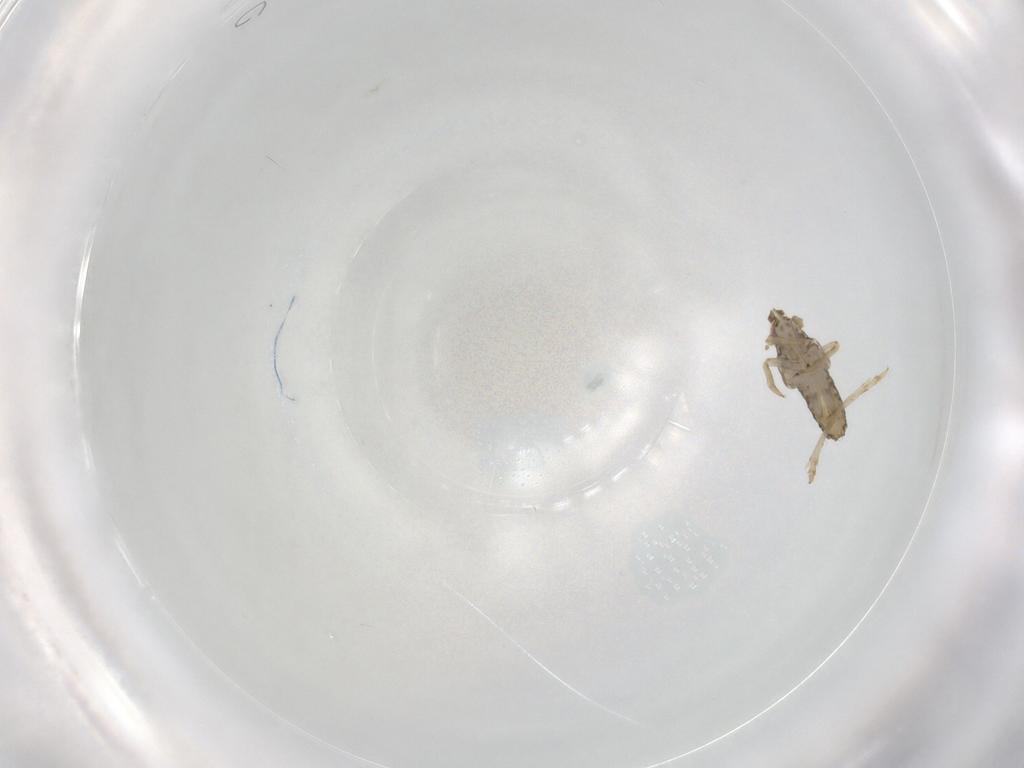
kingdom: Animalia
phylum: Arthropoda
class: Insecta
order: Hemiptera
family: Delphacidae
